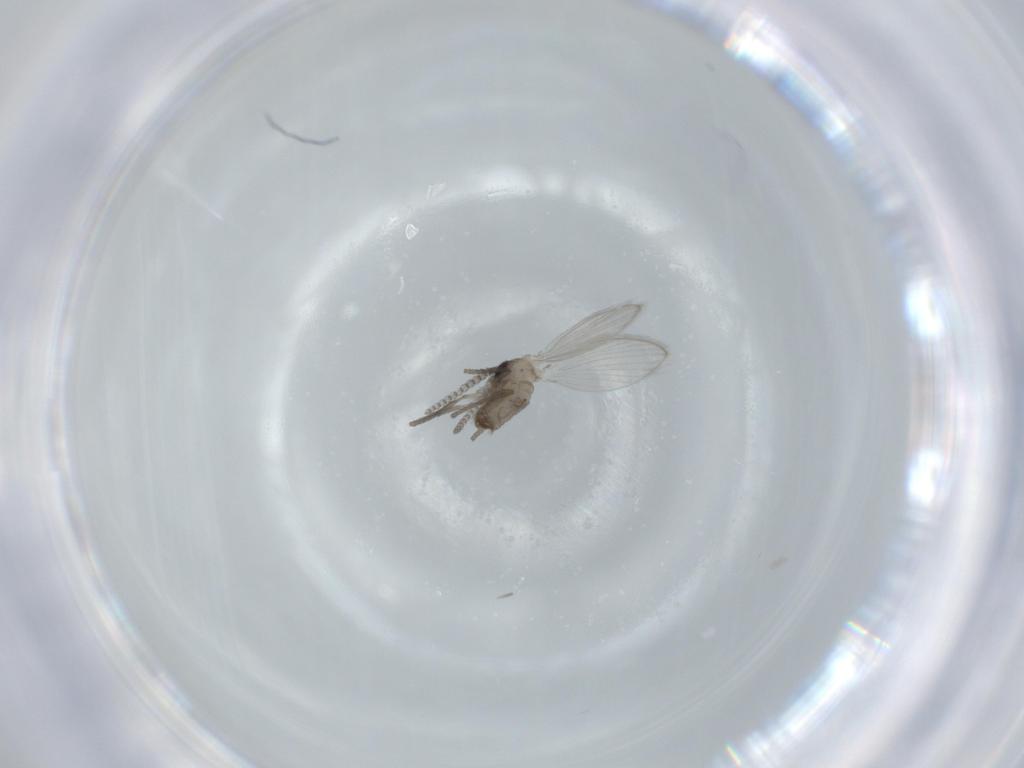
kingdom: Animalia
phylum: Arthropoda
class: Insecta
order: Diptera
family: Psychodidae
